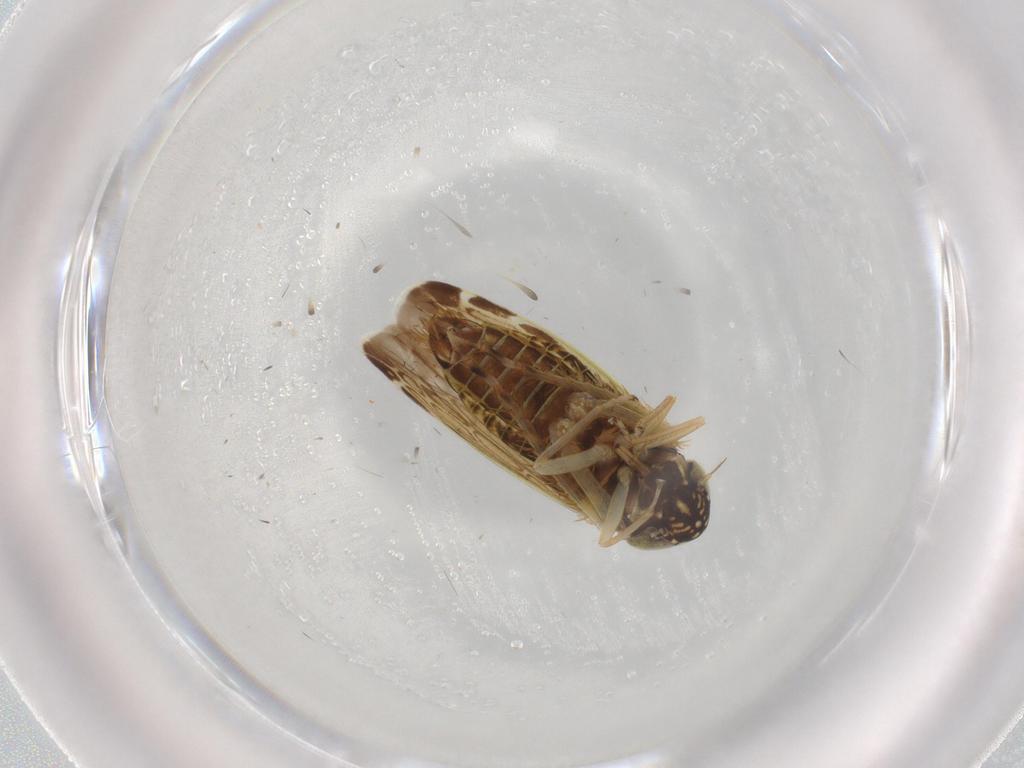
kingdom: Animalia
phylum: Arthropoda
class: Insecta
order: Hemiptera
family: Cicadellidae
